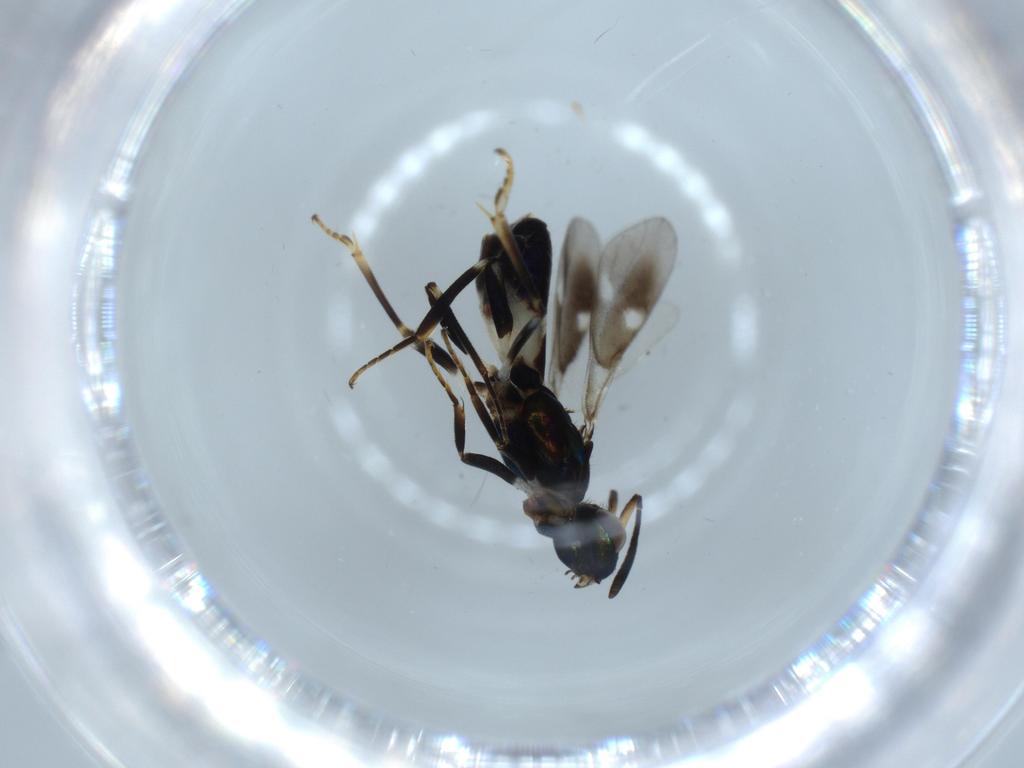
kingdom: Animalia
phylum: Arthropoda
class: Insecta
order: Hymenoptera
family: Eupelmidae
